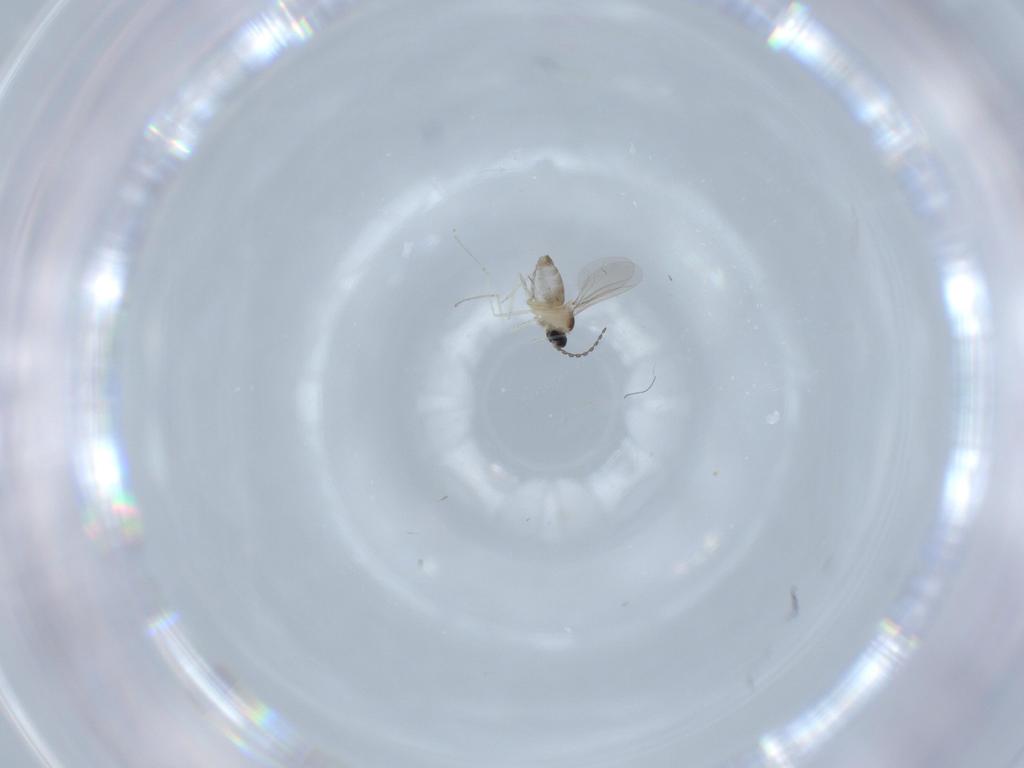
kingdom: Animalia
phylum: Arthropoda
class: Insecta
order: Diptera
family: Cecidomyiidae
